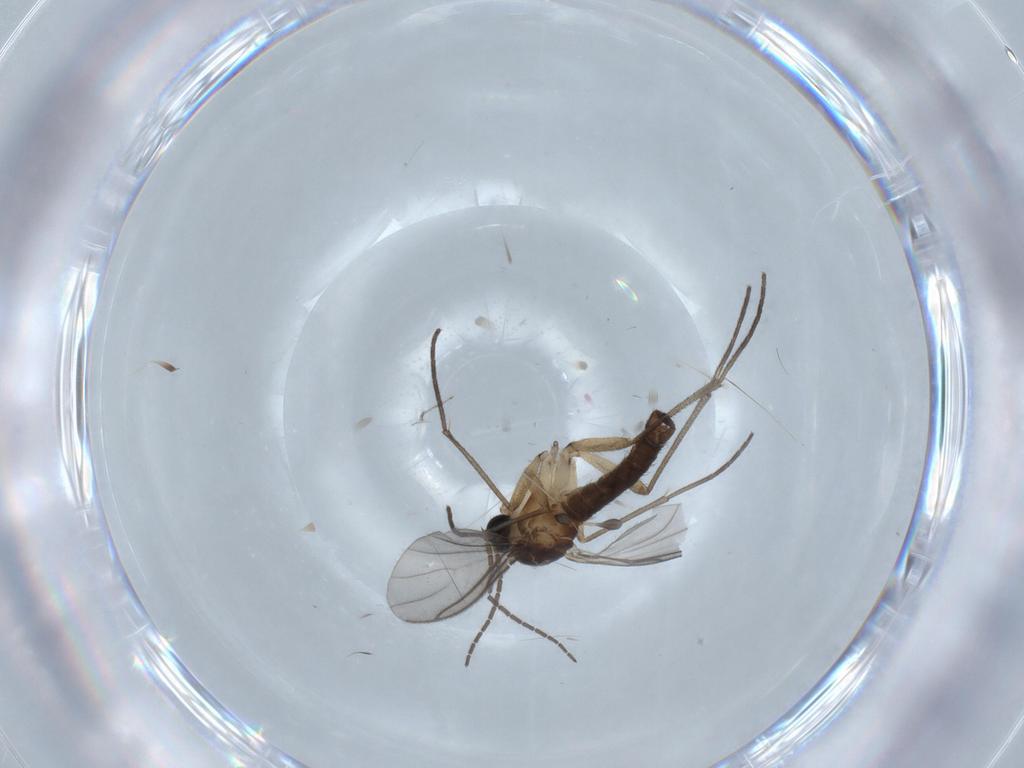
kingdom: Animalia
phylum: Arthropoda
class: Insecta
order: Diptera
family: Sciaridae
